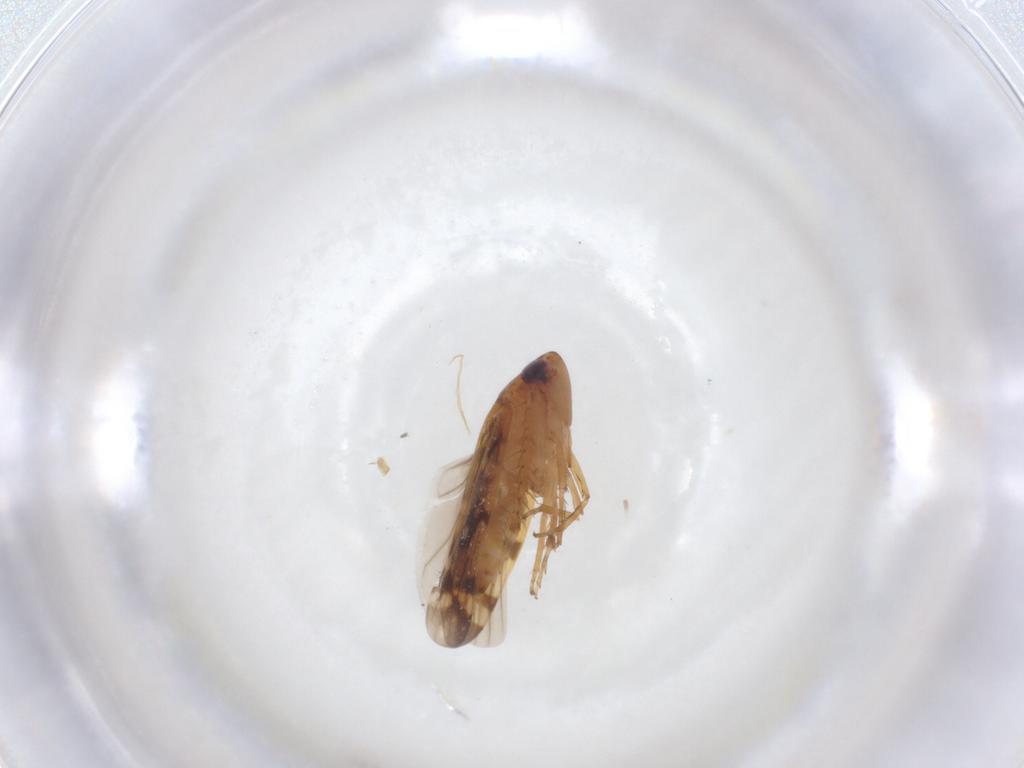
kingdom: Animalia
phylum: Arthropoda
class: Insecta
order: Hemiptera
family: Cicadellidae
